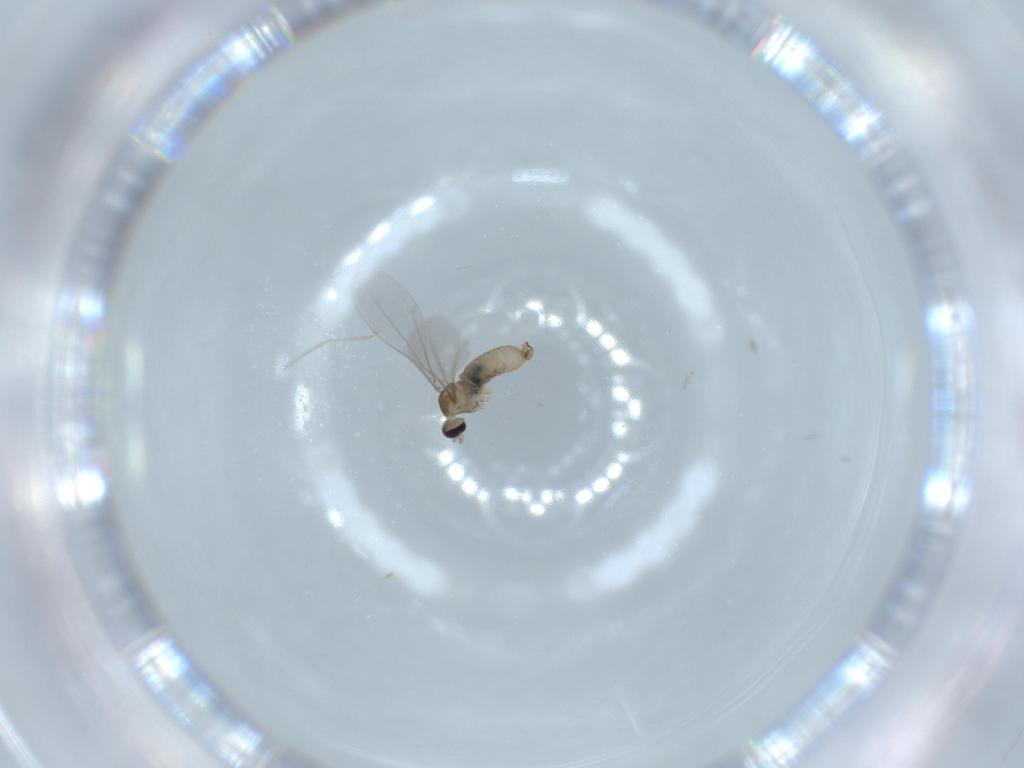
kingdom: Animalia
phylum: Arthropoda
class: Insecta
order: Diptera
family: Cecidomyiidae
